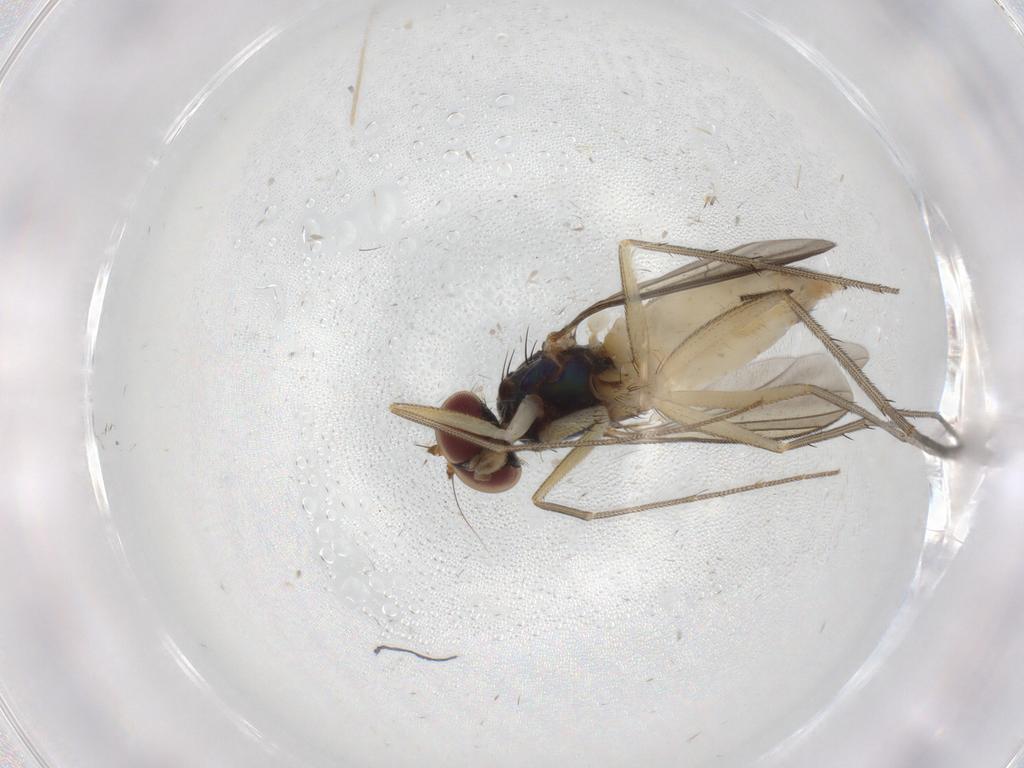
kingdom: Animalia
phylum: Arthropoda
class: Insecta
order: Diptera
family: Dolichopodidae
